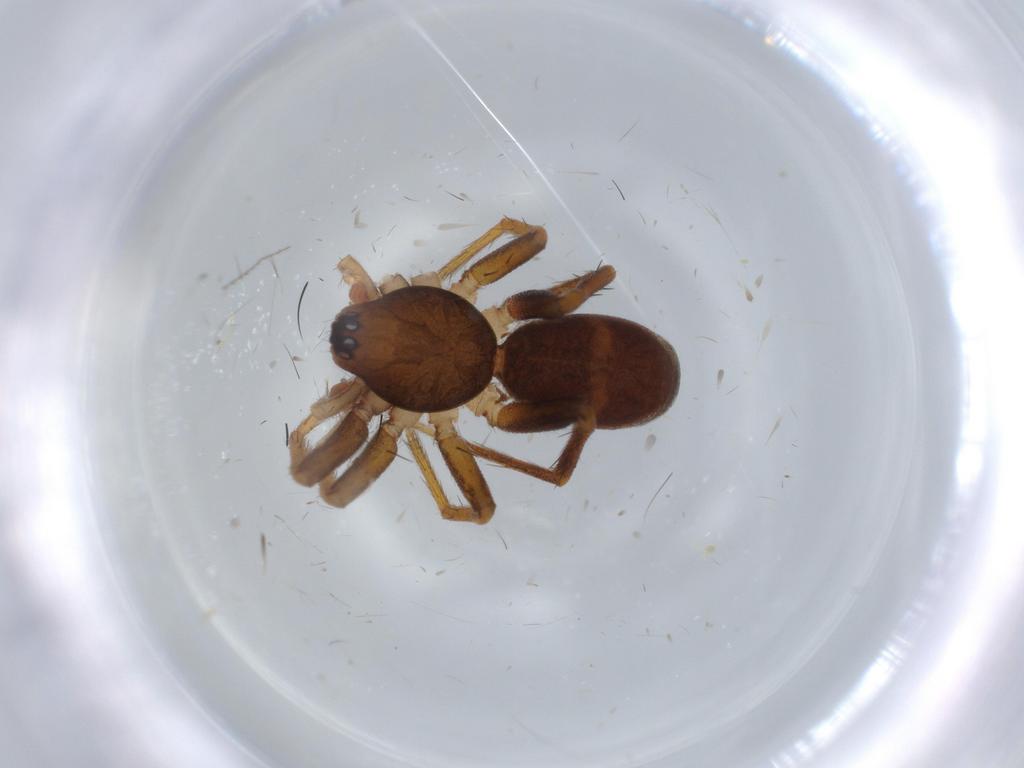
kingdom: Animalia
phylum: Arthropoda
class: Arachnida
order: Araneae
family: Corinnidae
